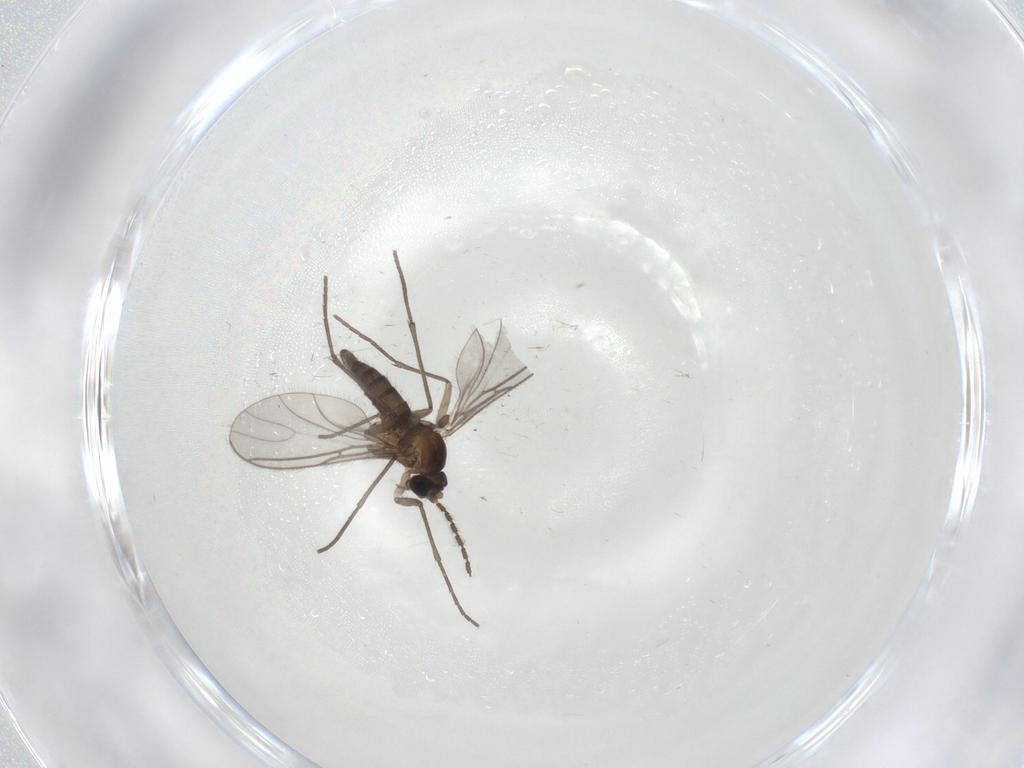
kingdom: Animalia
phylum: Arthropoda
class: Insecta
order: Diptera
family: Sciaridae
